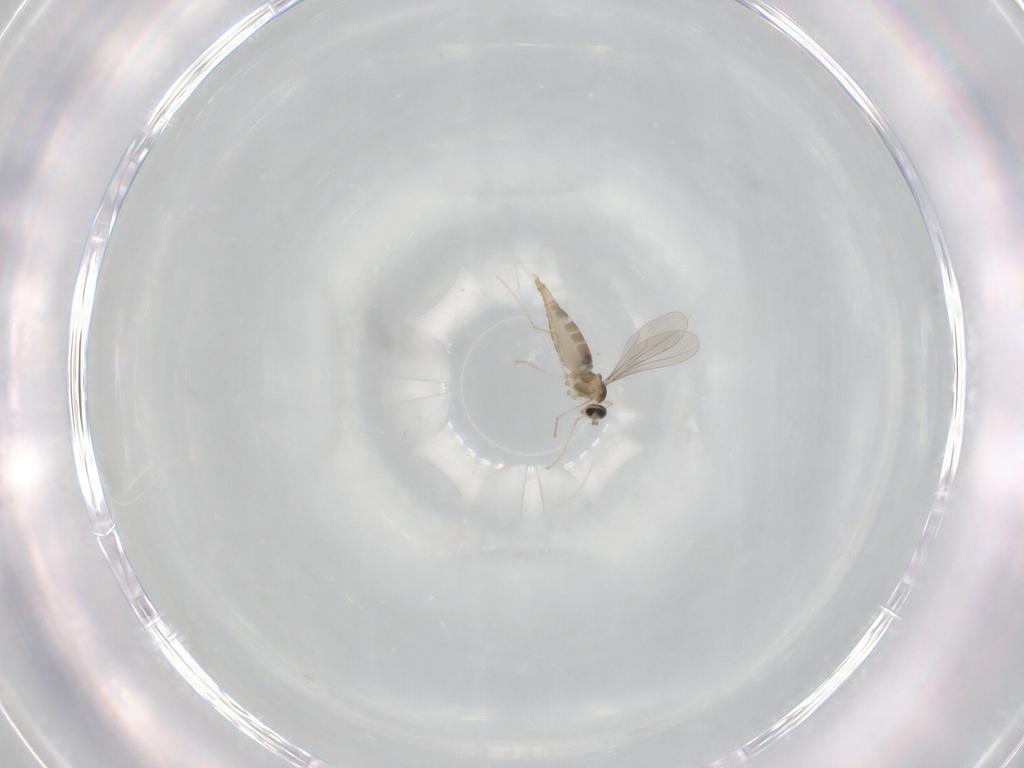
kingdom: Animalia
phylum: Arthropoda
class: Insecta
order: Diptera
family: Cecidomyiidae
